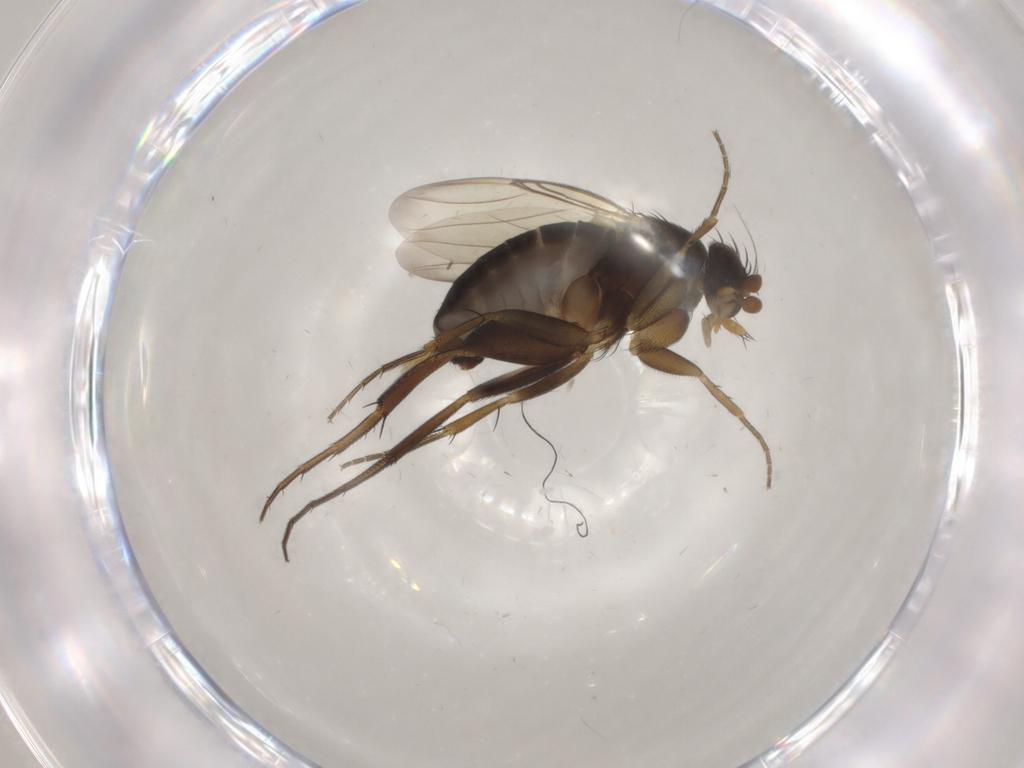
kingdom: Animalia
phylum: Arthropoda
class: Insecta
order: Diptera
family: Phoridae
